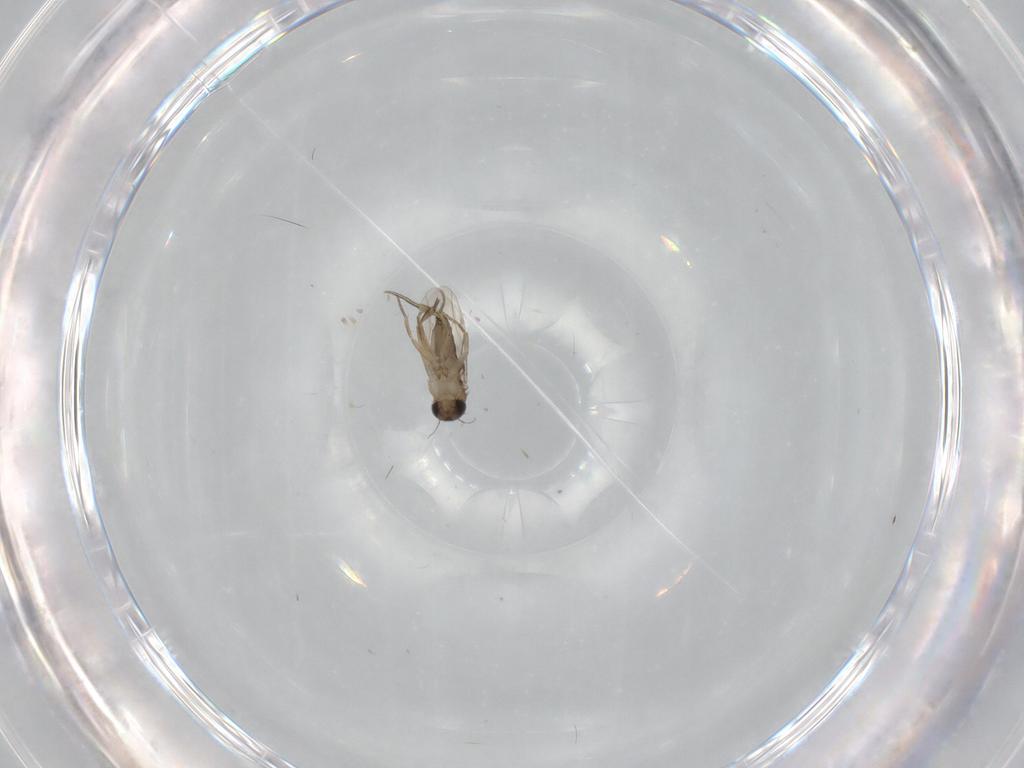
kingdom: Animalia
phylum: Arthropoda
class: Insecta
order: Diptera
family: Phoridae
